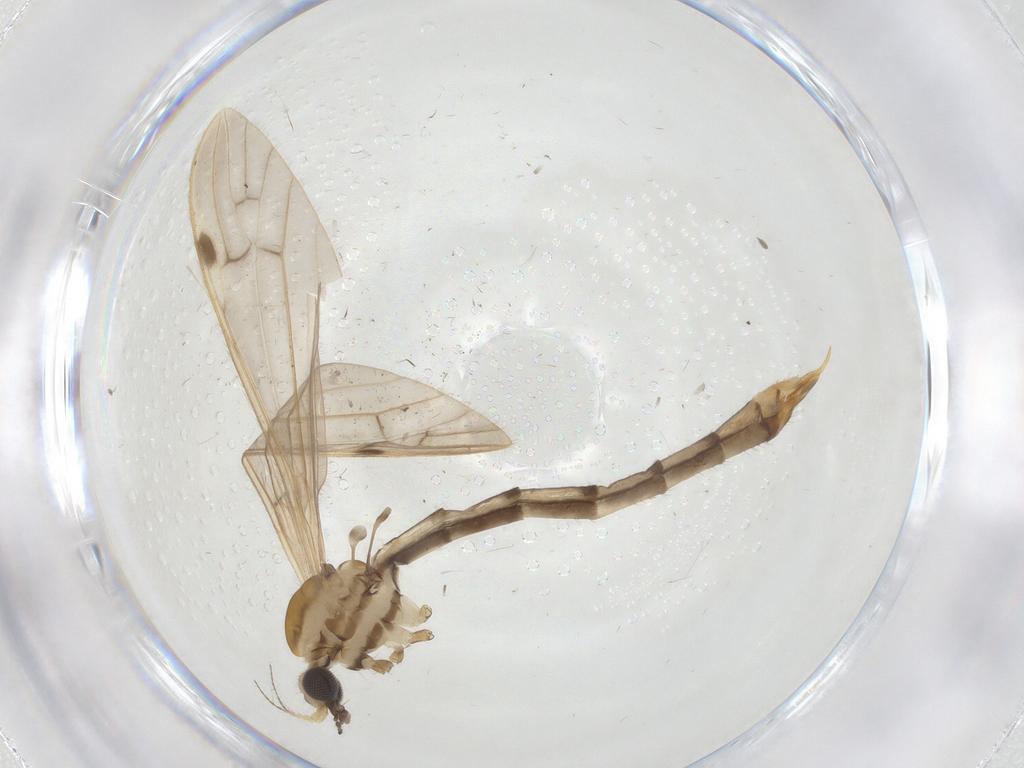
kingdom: Animalia
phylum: Arthropoda
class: Insecta
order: Diptera
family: Limoniidae
